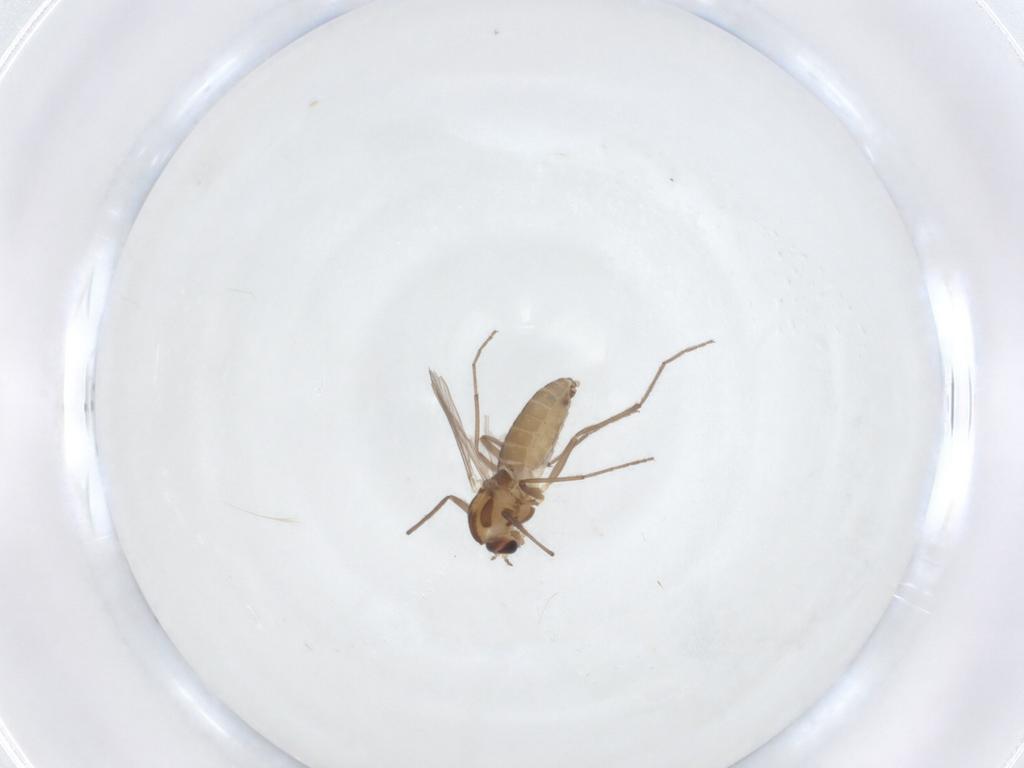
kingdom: Animalia
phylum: Arthropoda
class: Insecta
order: Diptera
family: Chironomidae
